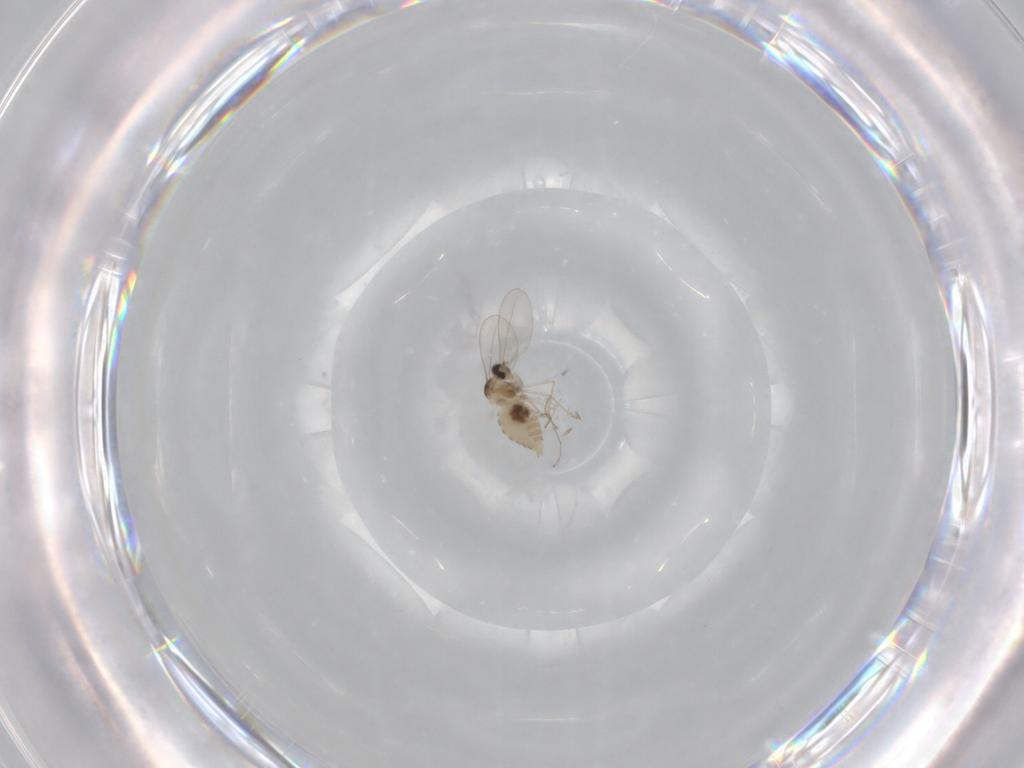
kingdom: Animalia
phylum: Arthropoda
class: Insecta
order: Diptera
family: Cecidomyiidae
